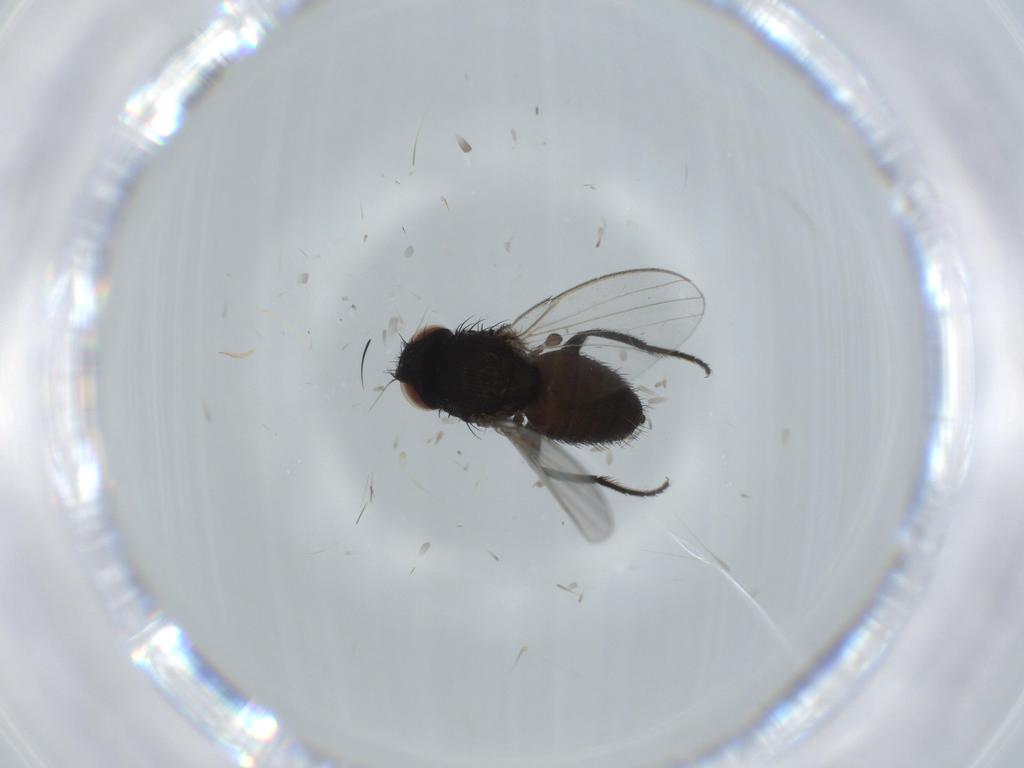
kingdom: Animalia
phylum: Arthropoda
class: Insecta
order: Diptera
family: Milichiidae
